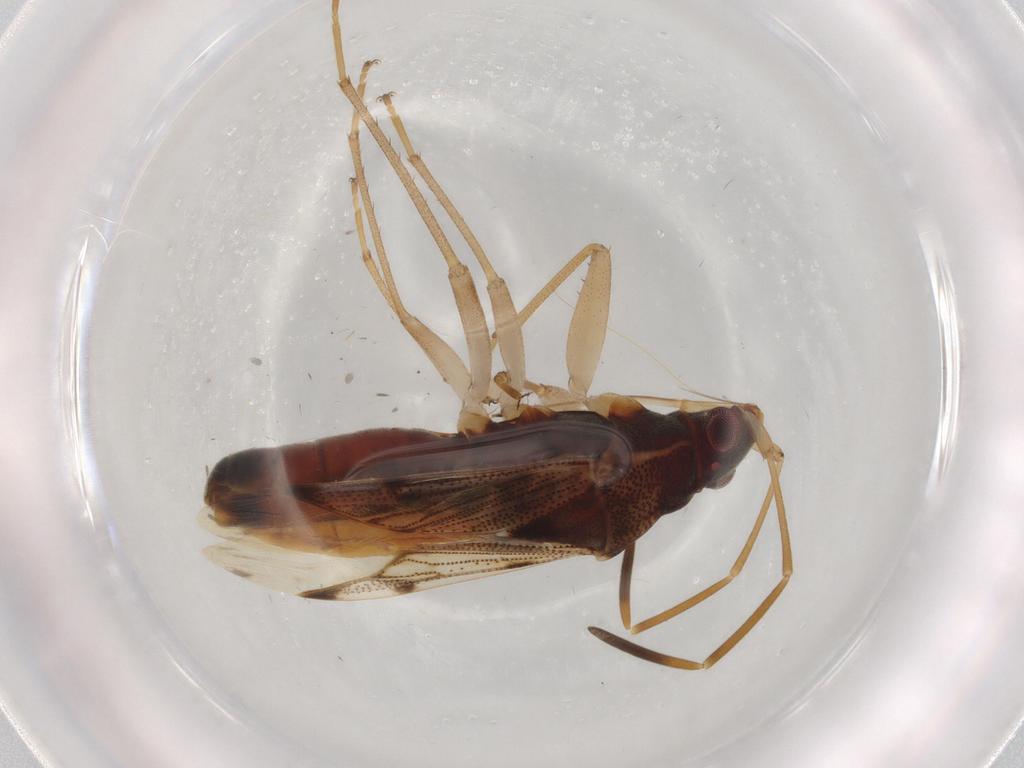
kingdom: Animalia
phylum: Arthropoda
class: Insecta
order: Hemiptera
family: Rhyparochromidae
